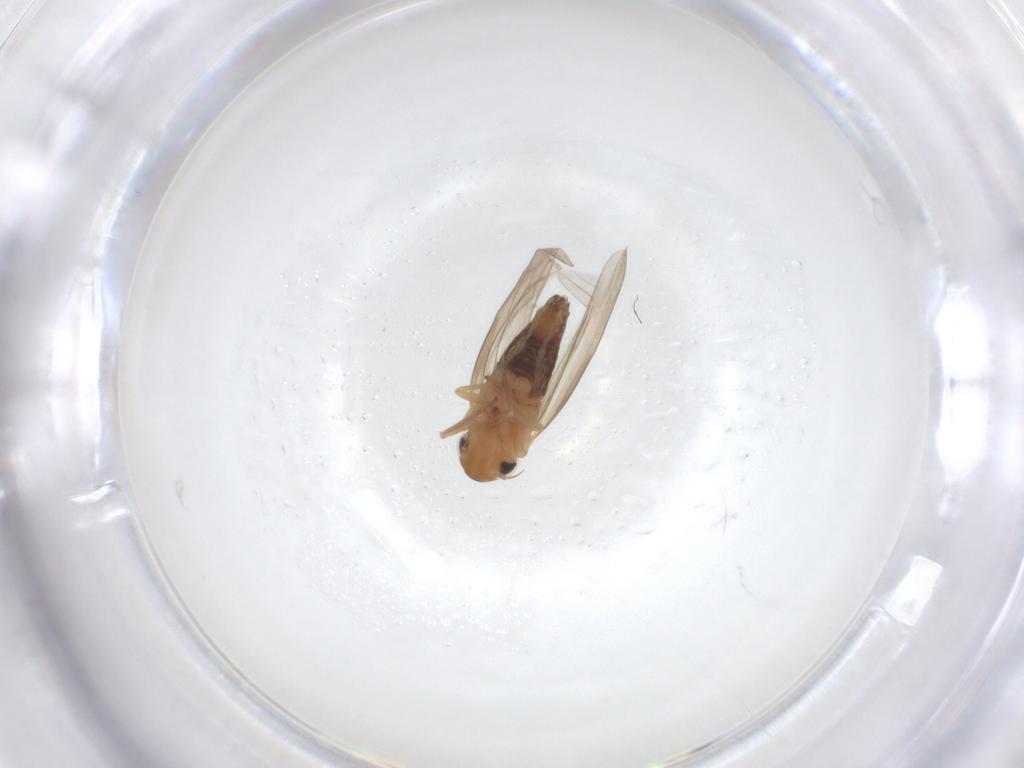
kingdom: Animalia
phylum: Arthropoda
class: Insecta
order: Hemiptera
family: Cicadellidae
